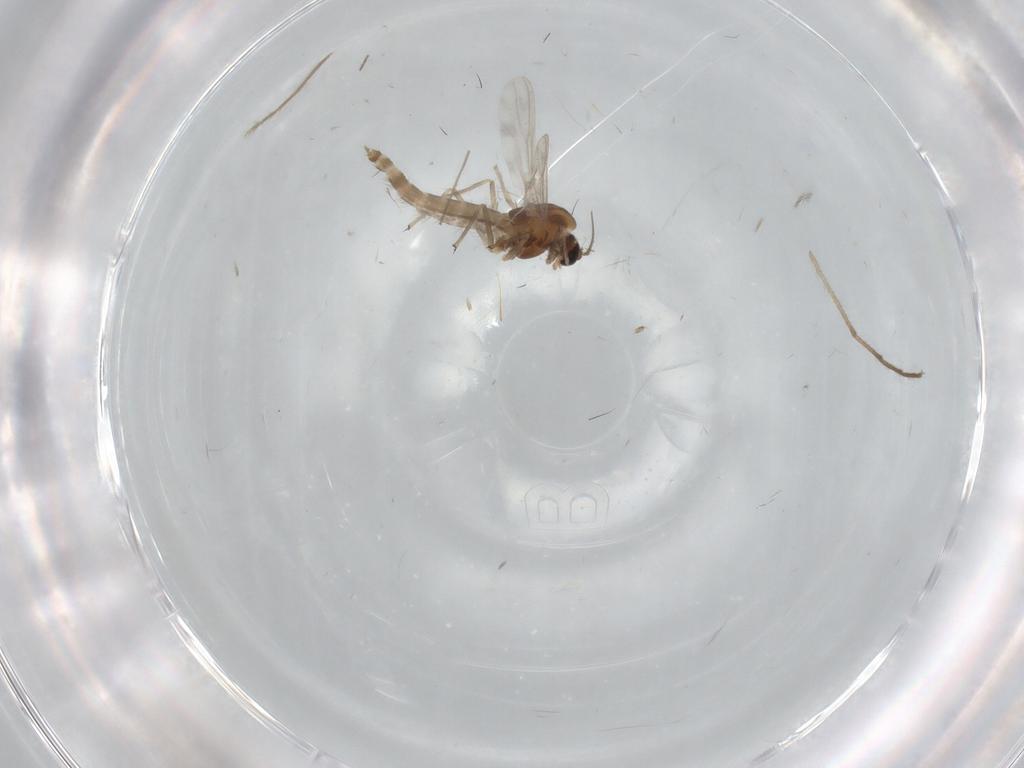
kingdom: Animalia
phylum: Arthropoda
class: Insecta
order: Diptera
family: Chironomidae
